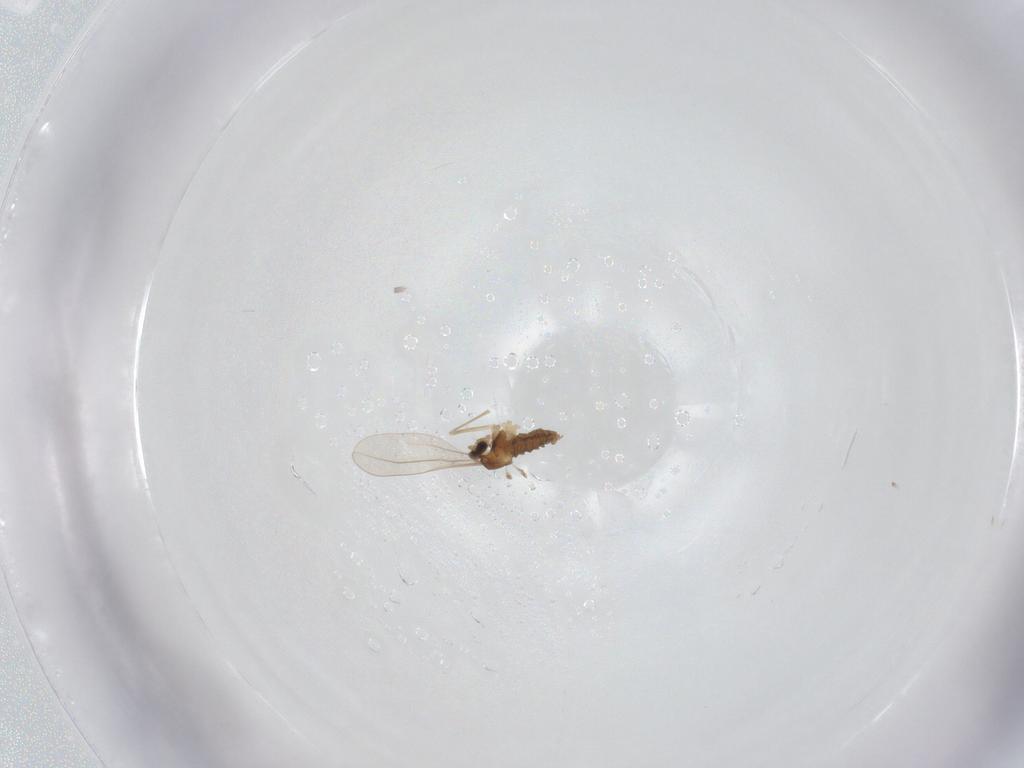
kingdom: Animalia
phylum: Arthropoda
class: Insecta
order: Diptera
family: Cecidomyiidae
